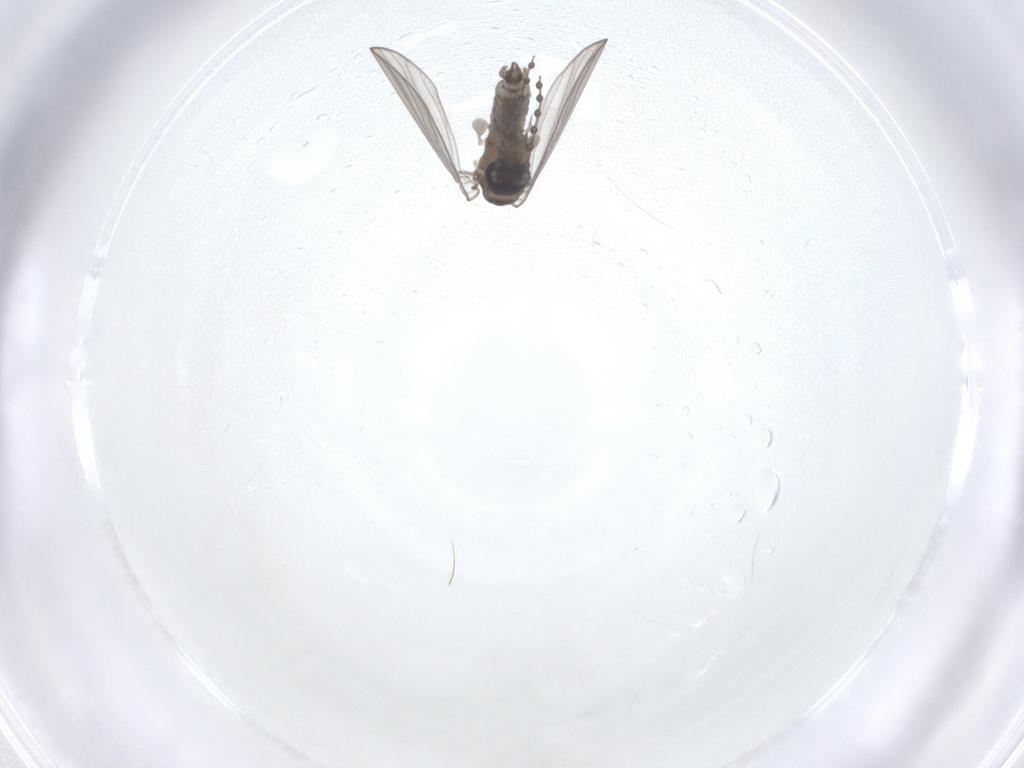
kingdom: Animalia
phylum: Arthropoda
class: Insecta
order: Diptera
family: Psychodidae
